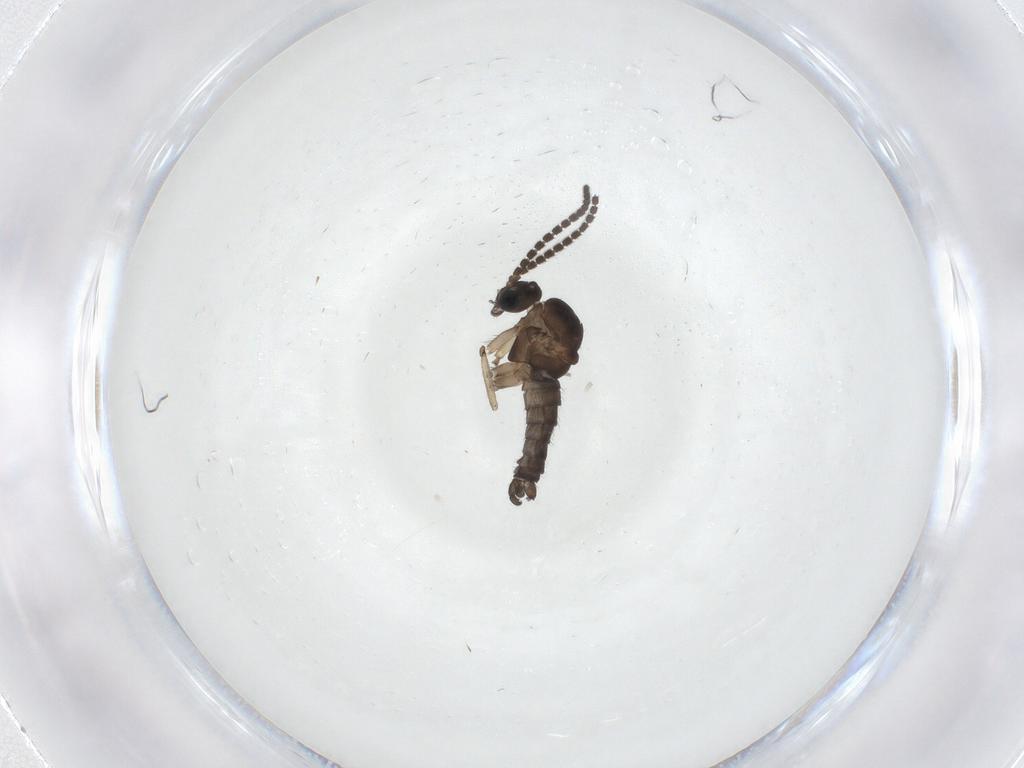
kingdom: Animalia
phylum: Arthropoda
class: Insecta
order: Diptera
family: Sciaridae
